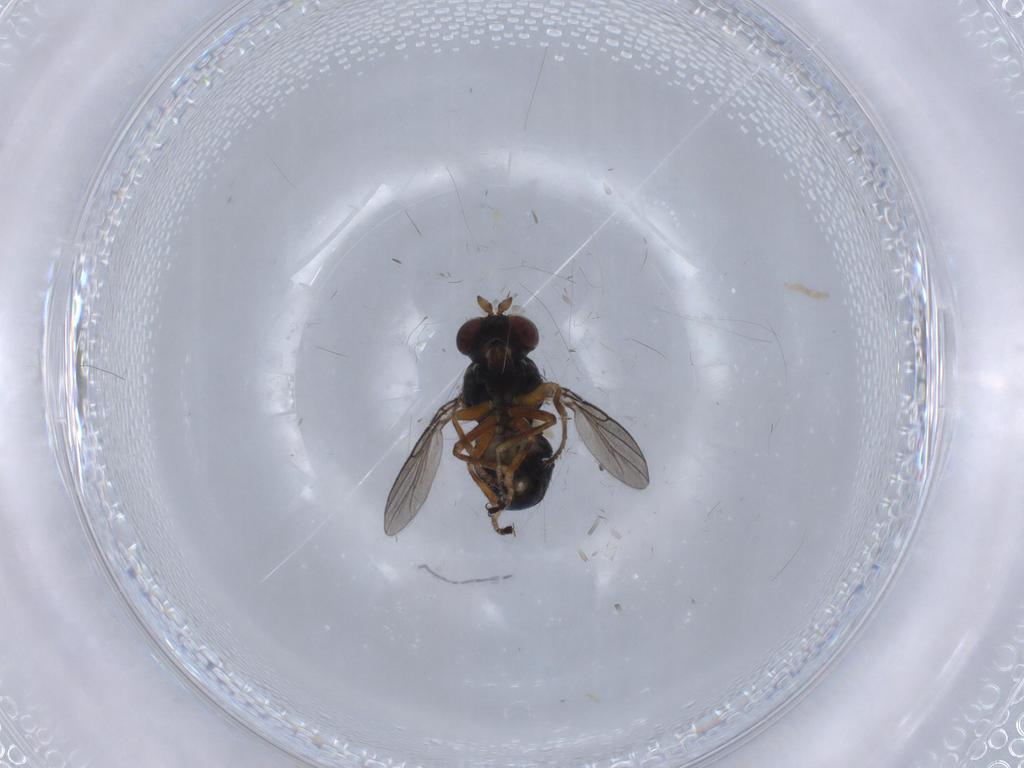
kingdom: Animalia
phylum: Arthropoda
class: Insecta
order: Diptera
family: Ephydridae
